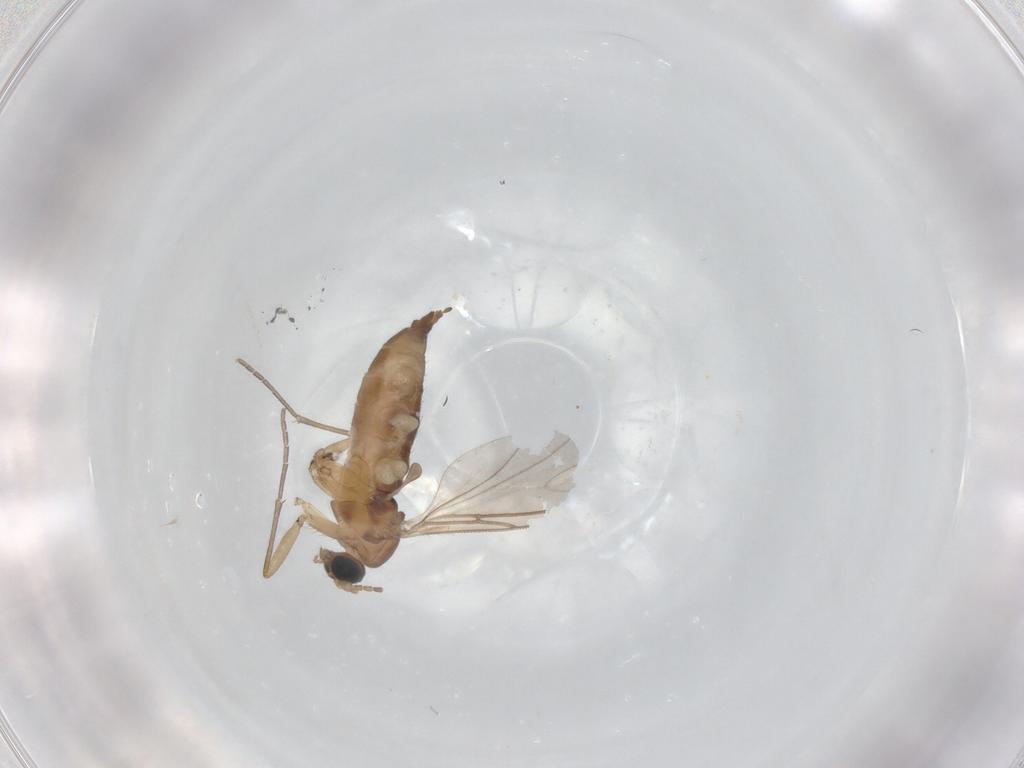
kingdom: Animalia
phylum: Arthropoda
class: Insecta
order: Diptera
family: Sciaridae
